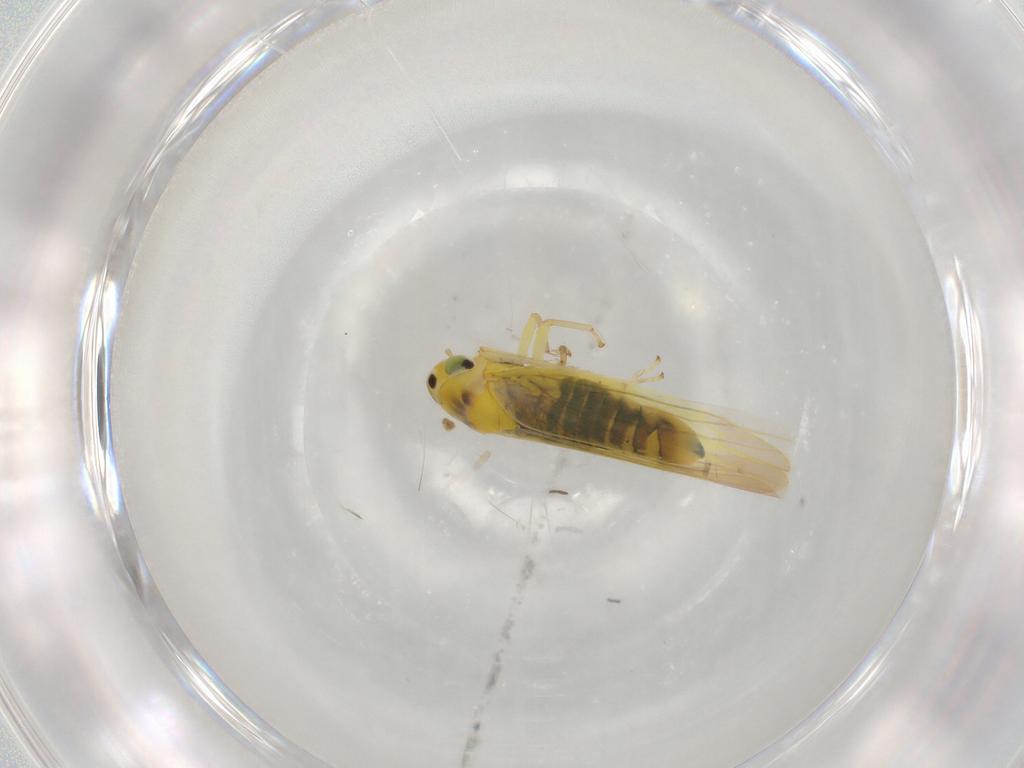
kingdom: Animalia
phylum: Arthropoda
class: Insecta
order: Hemiptera
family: Cicadellidae
